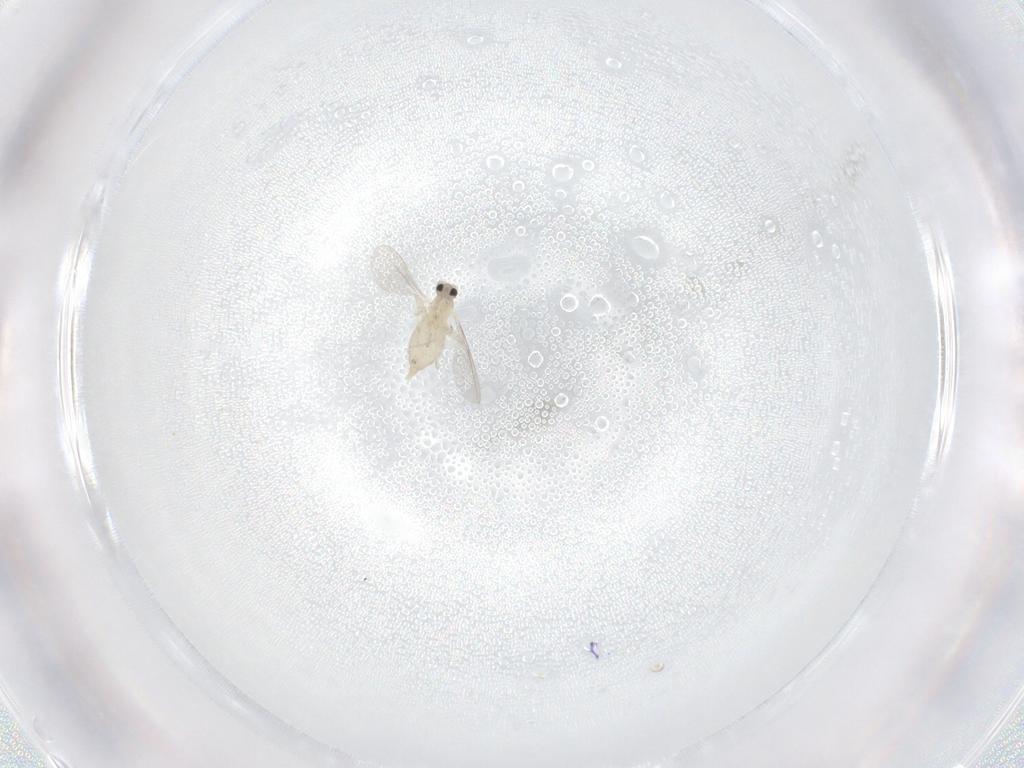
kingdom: Animalia
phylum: Arthropoda
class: Insecta
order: Diptera
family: Cecidomyiidae
